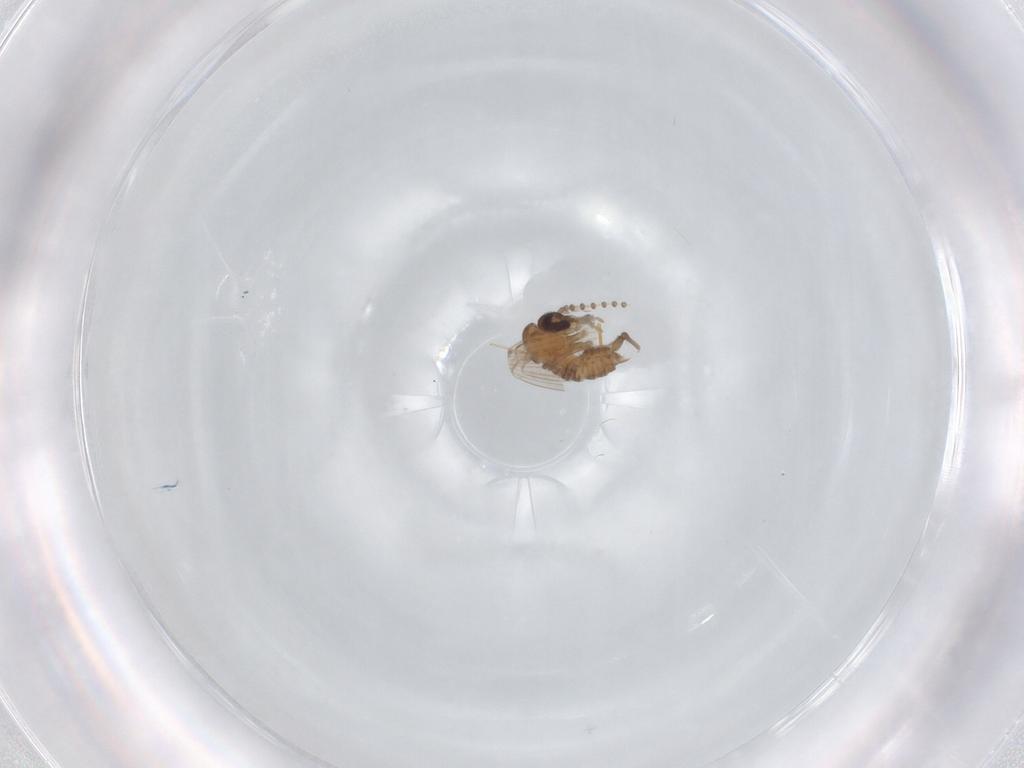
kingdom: Animalia
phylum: Arthropoda
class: Insecta
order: Diptera
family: Psychodidae
